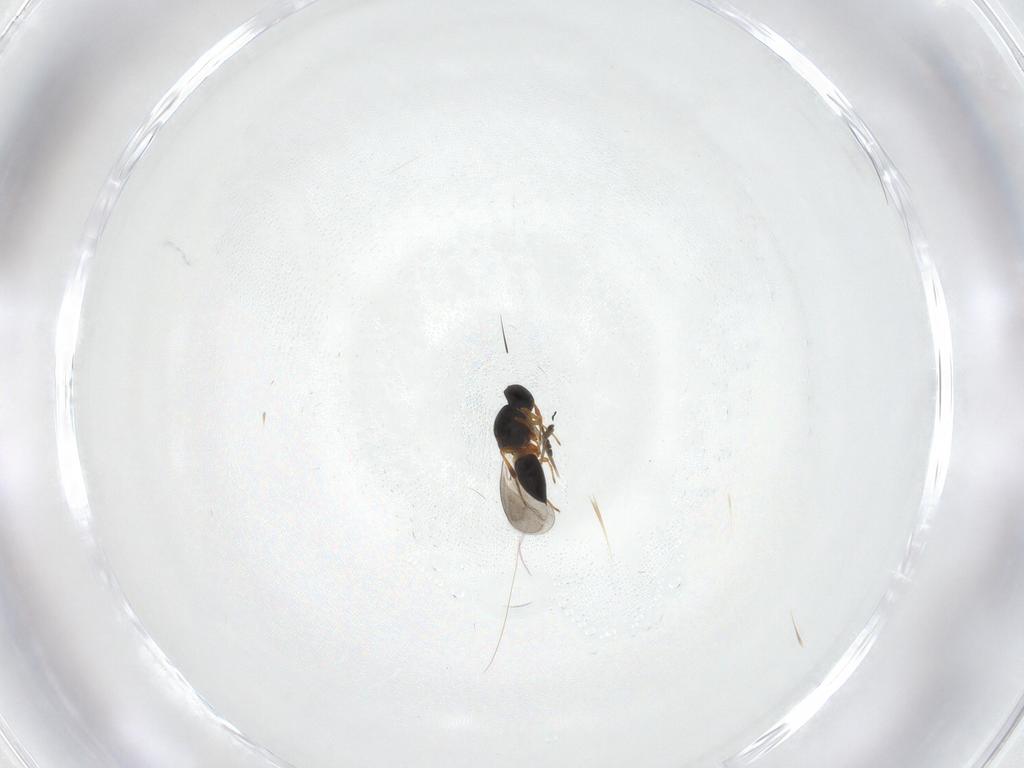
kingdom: Animalia
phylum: Arthropoda
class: Insecta
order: Hymenoptera
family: Platygastridae
